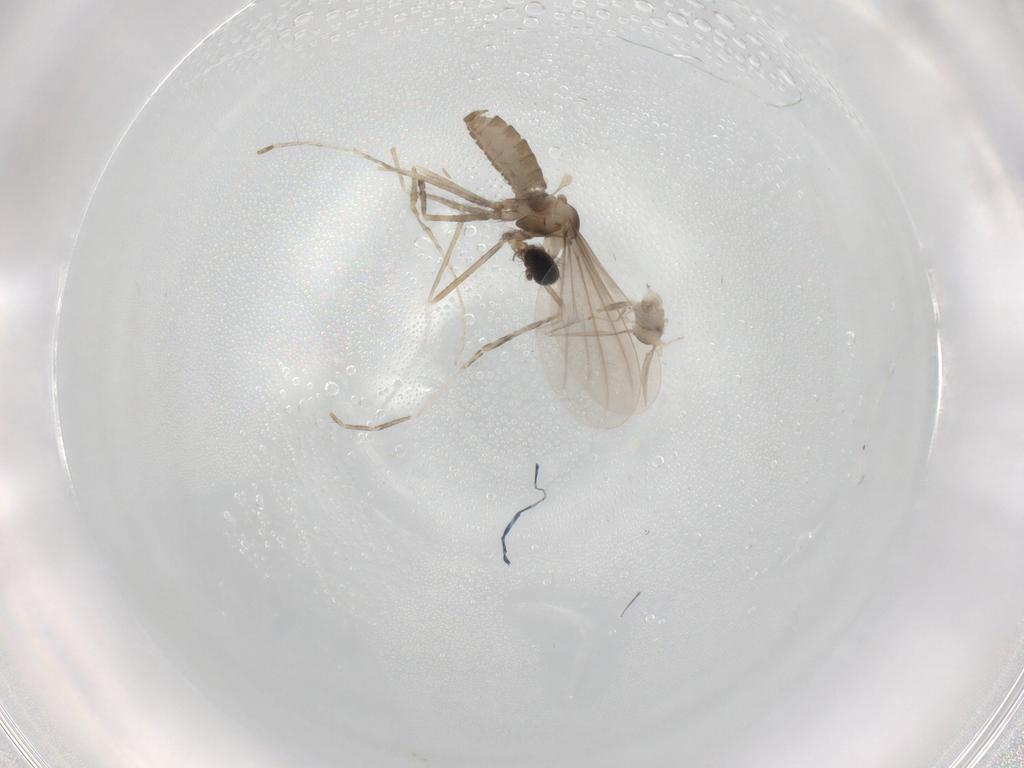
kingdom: Animalia
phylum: Arthropoda
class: Insecta
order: Diptera
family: Cecidomyiidae
